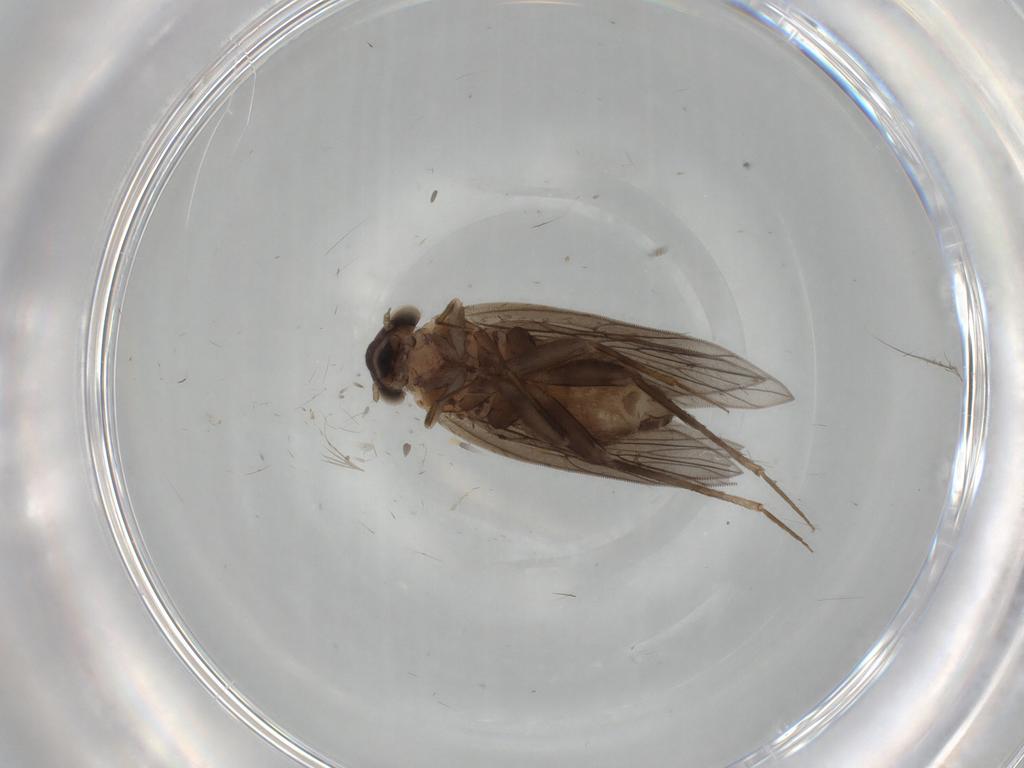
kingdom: Animalia
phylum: Arthropoda
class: Insecta
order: Psocodea
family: Lepidopsocidae
